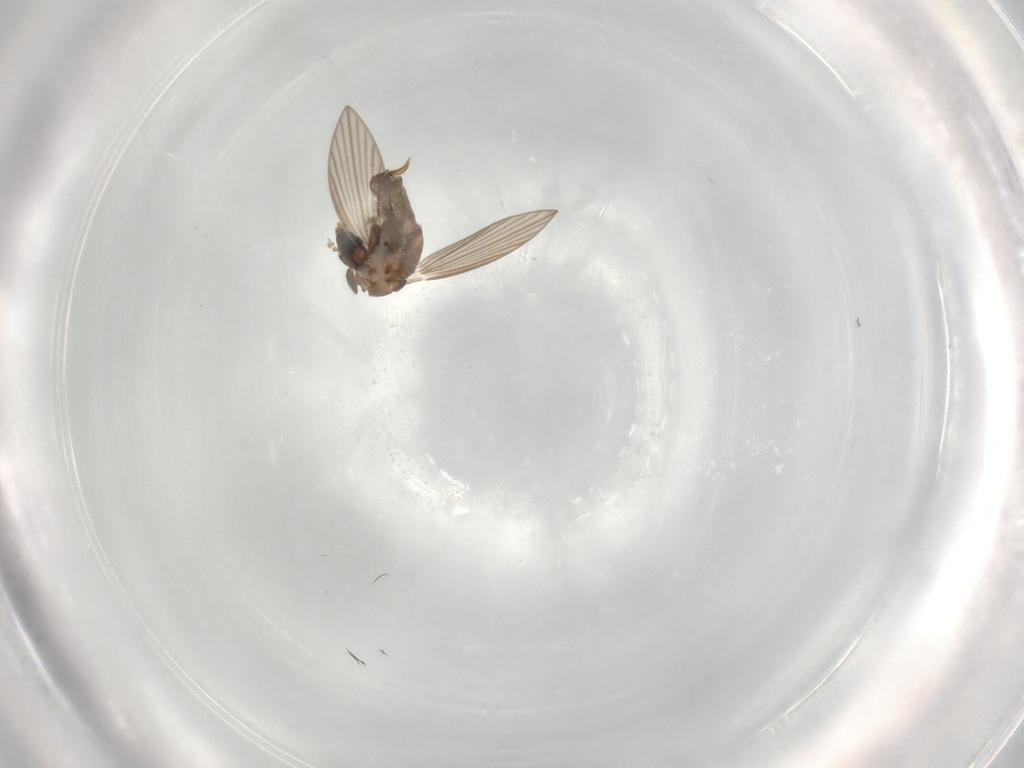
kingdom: Animalia
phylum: Arthropoda
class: Insecta
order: Diptera
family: Psychodidae
